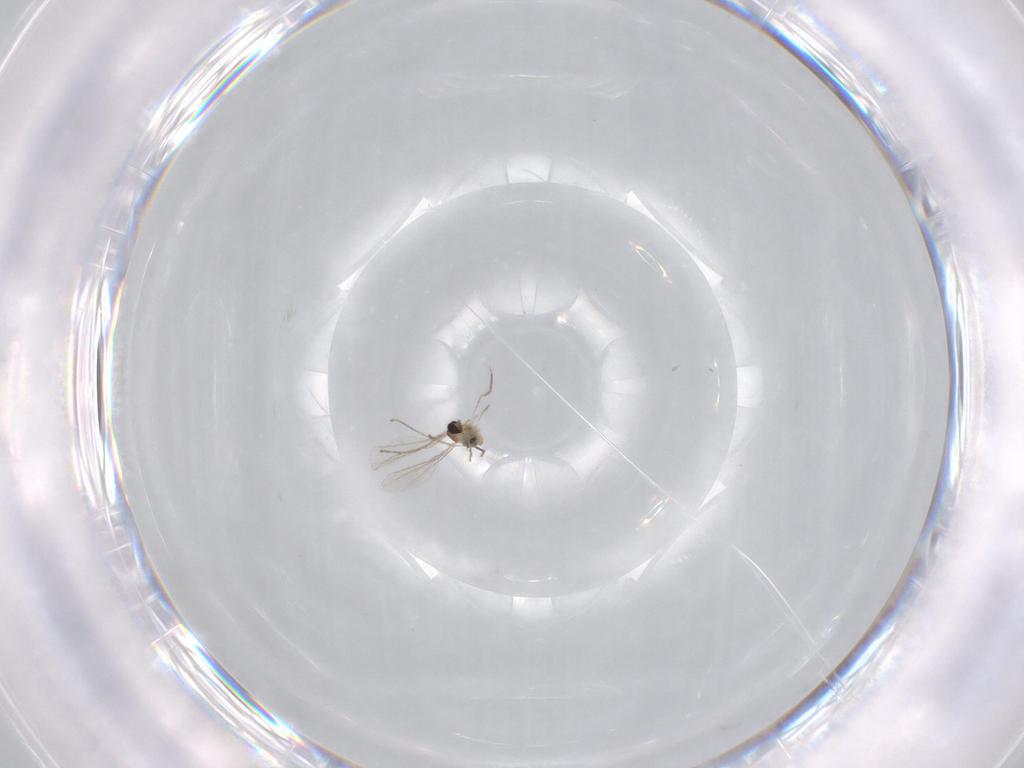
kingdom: Animalia
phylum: Arthropoda
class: Insecta
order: Diptera
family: Cecidomyiidae
